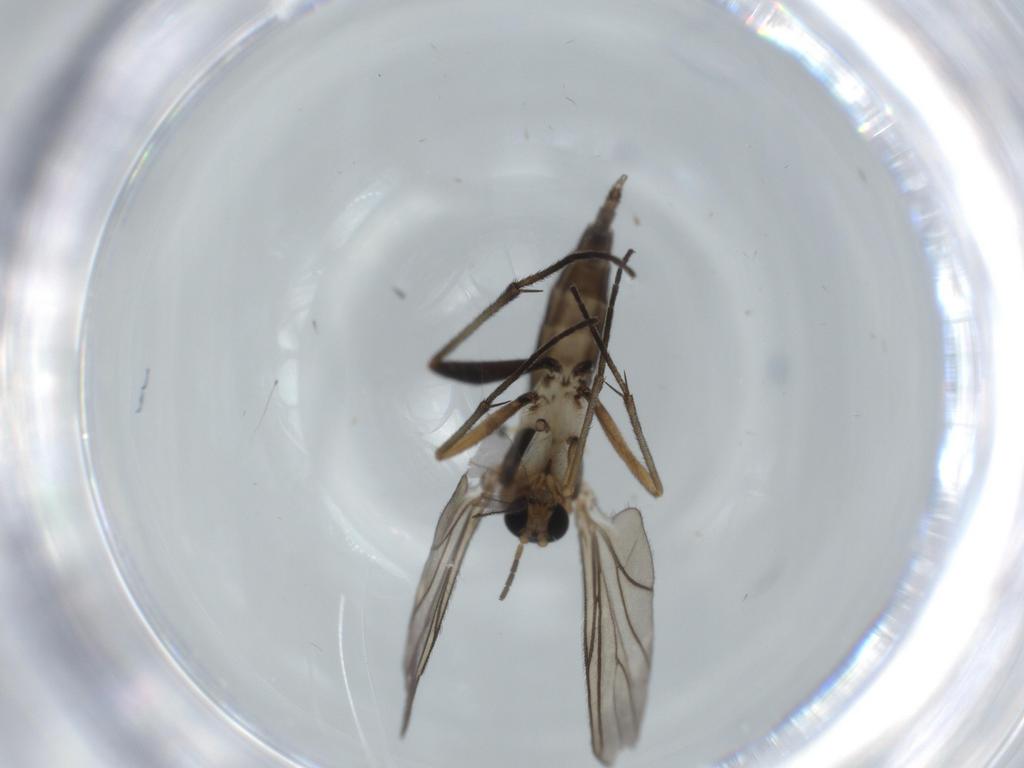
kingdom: Animalia
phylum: Arthropoda
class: Insecta
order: Diptera
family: Sciaridae
